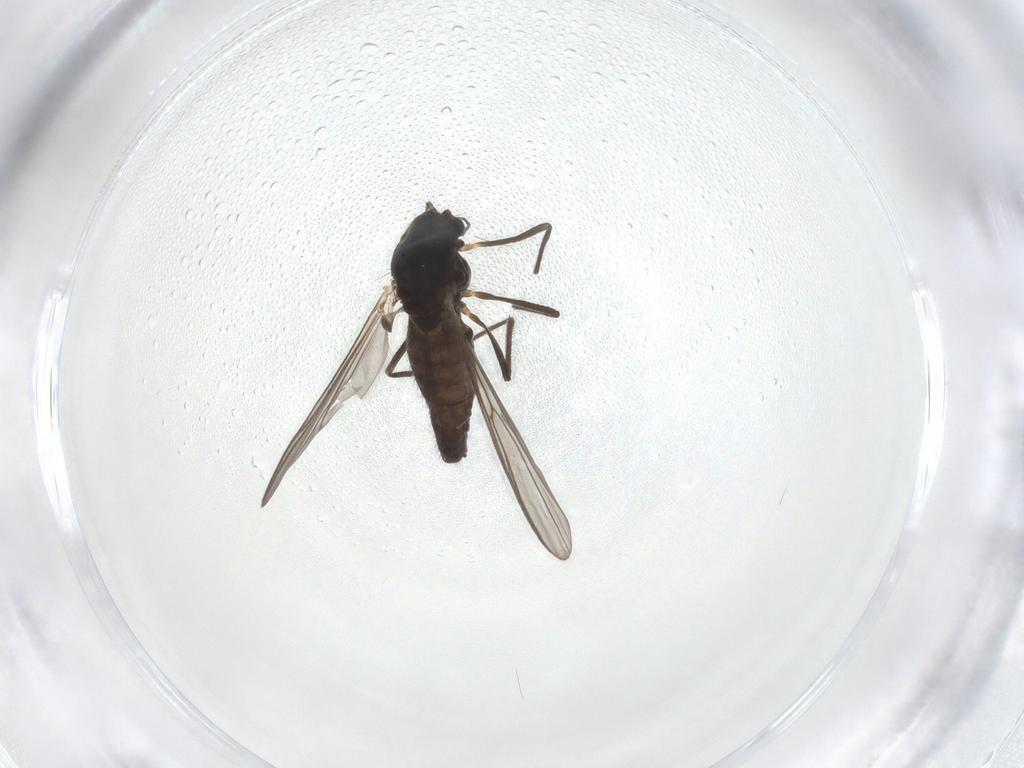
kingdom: Animalia
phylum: Arthropoda
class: Insecta
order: Diptera
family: Chironomidae
